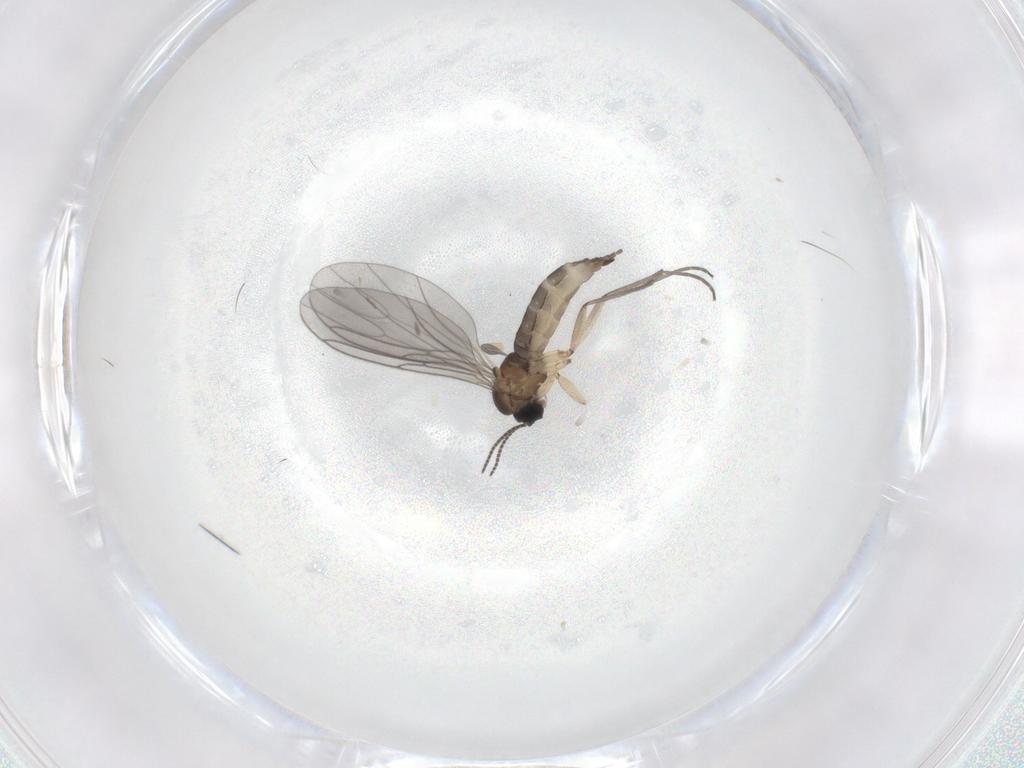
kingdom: Animalia
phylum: Arthropoda
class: Insecta
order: Diptera
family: Sciaridae
